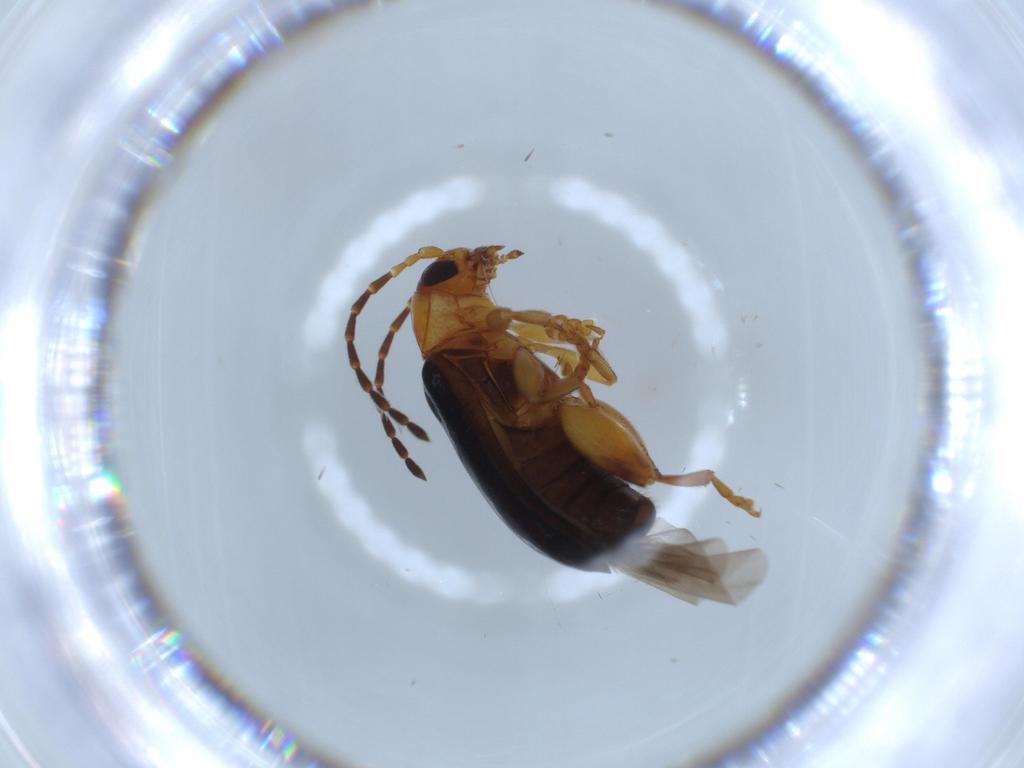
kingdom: Animalia
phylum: Arthropoda
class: Insecta
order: Coleoptera
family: Chrysomelidae
